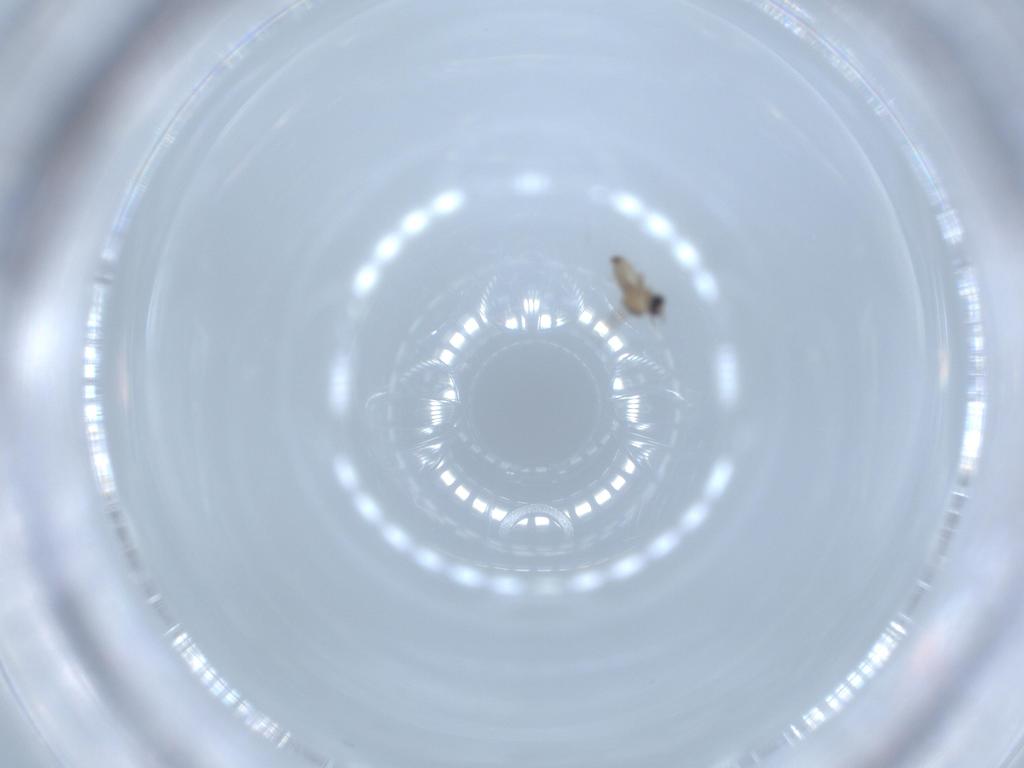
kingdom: Animalia
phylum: Arthropoda
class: Insecta
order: Diptera
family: Cecidomyiidae
